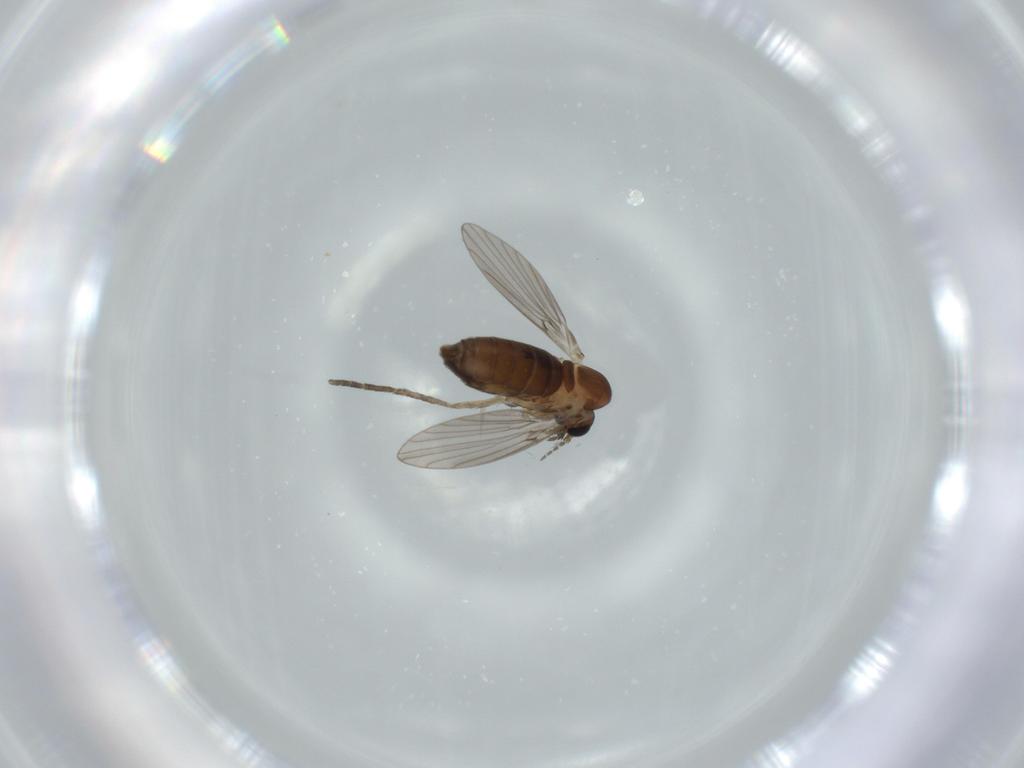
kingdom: Animalia
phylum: Arthropoda
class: Insecta
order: Diptera
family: Psychodidae
